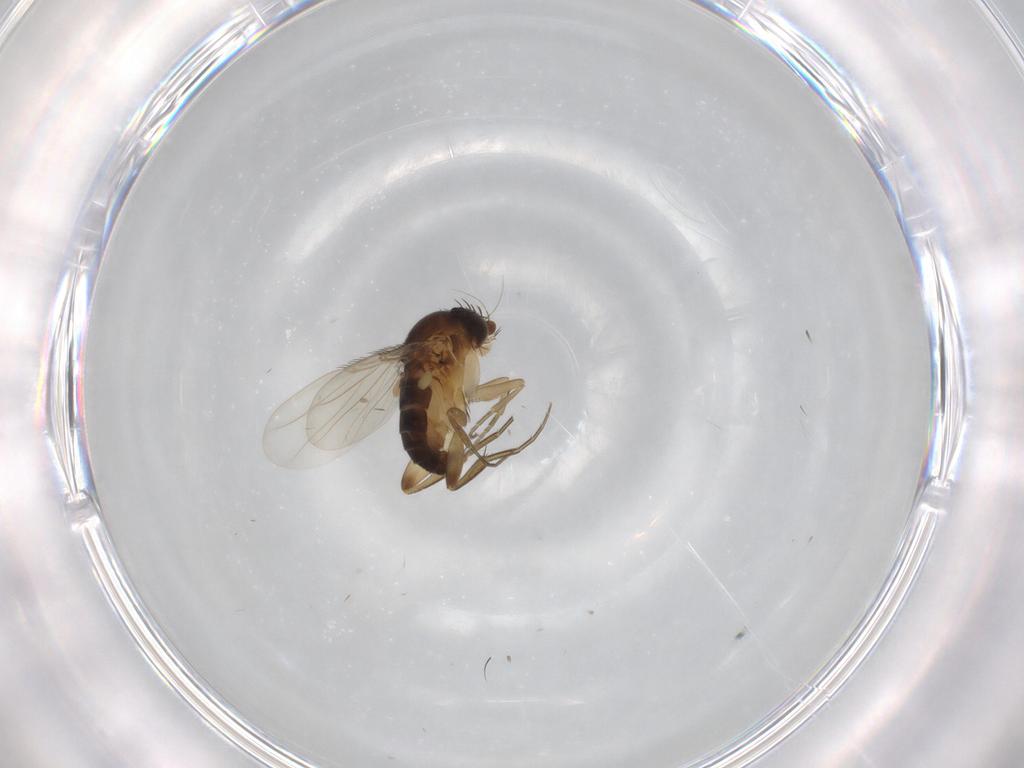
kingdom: Animalia
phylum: Arthropoda
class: Insecta
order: Diptera
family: Phoridae
